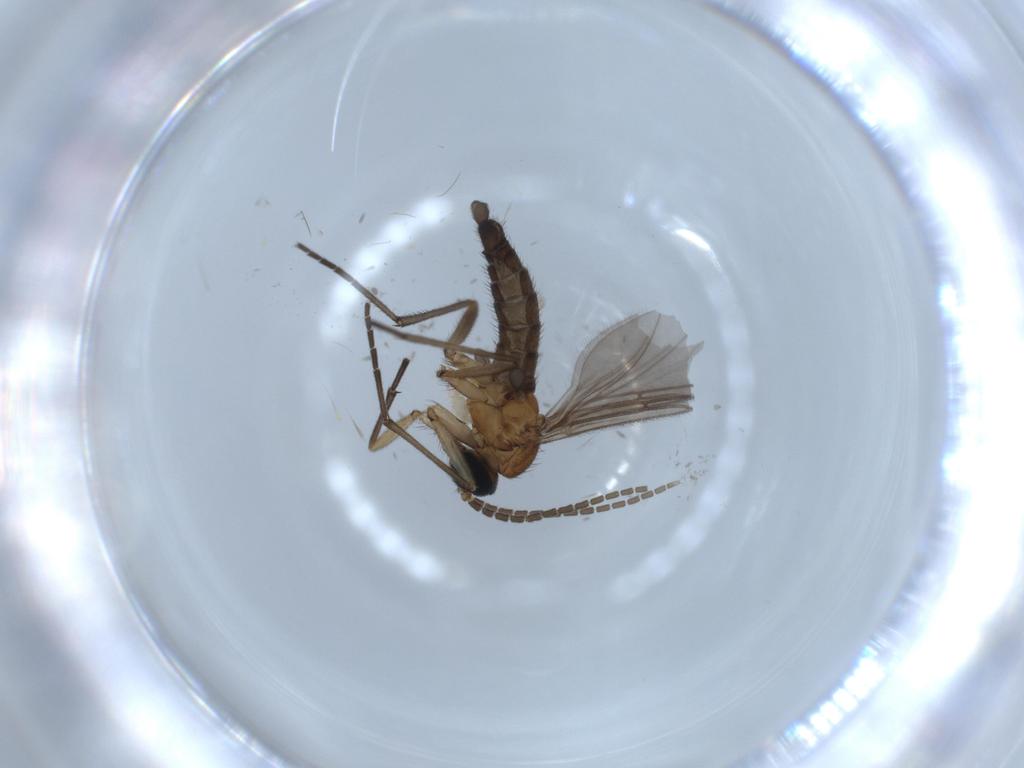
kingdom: Animalia
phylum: Arthropoda
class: Insecta
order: Diptera
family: Sciaridae
